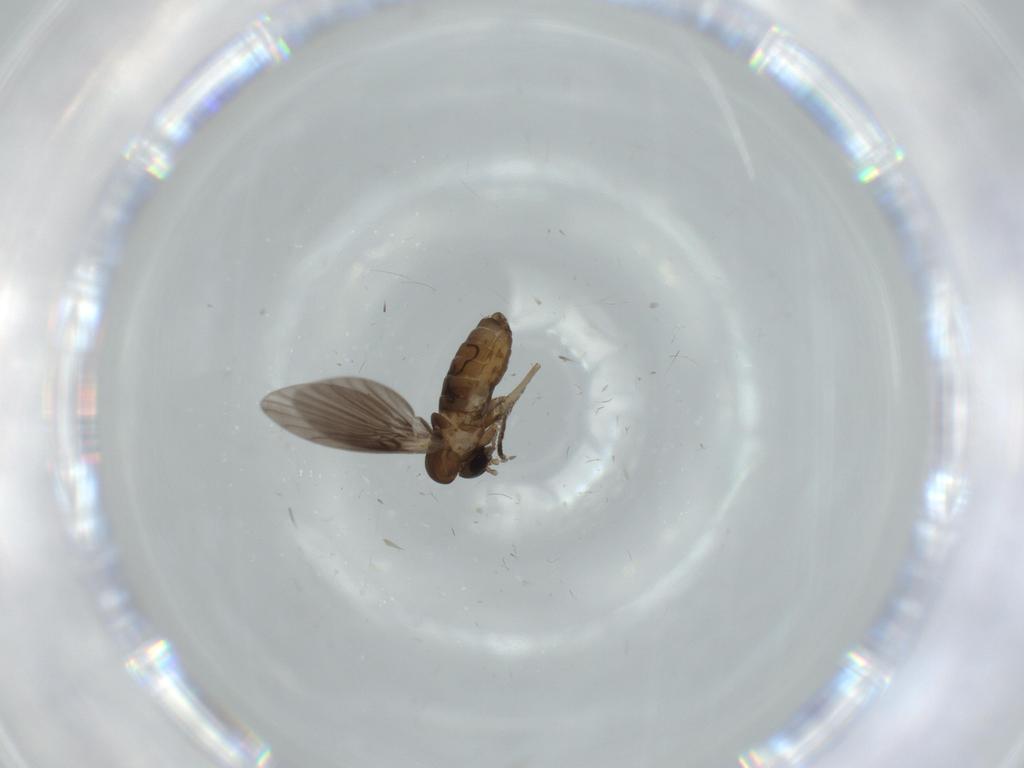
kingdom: Animalia
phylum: Arthropoda
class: Insecta
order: Diptera
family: Psychodidae
